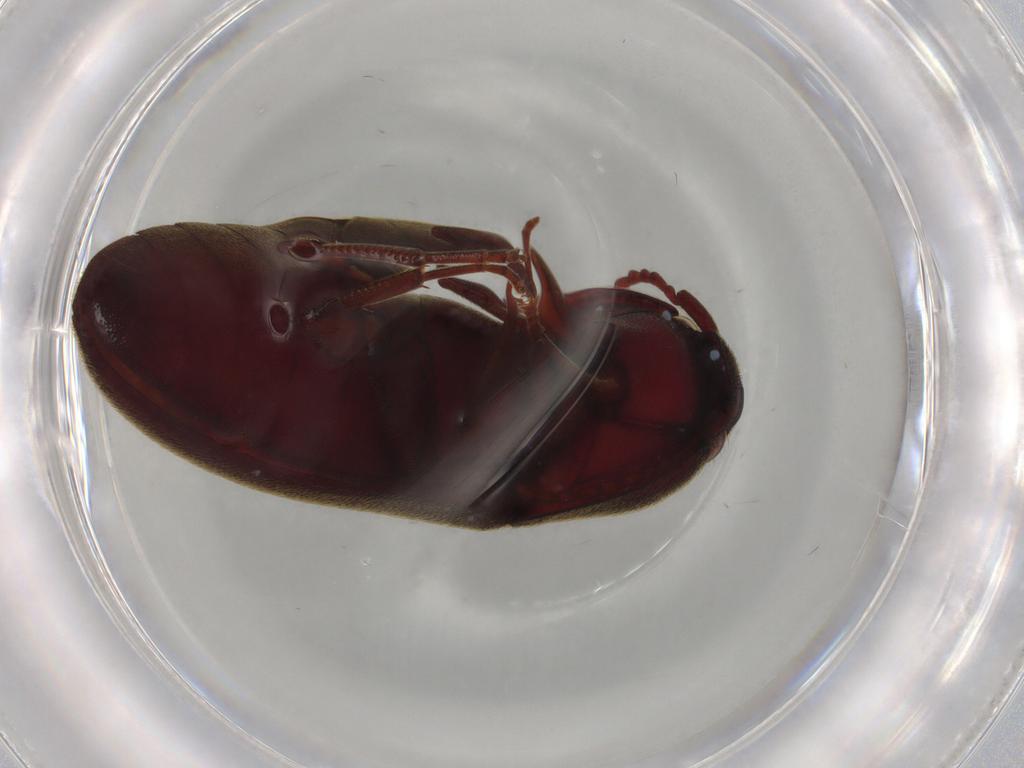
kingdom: Animalia
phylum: Arthropoda
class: Insecta
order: Coleoptera
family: Eucnemidae
